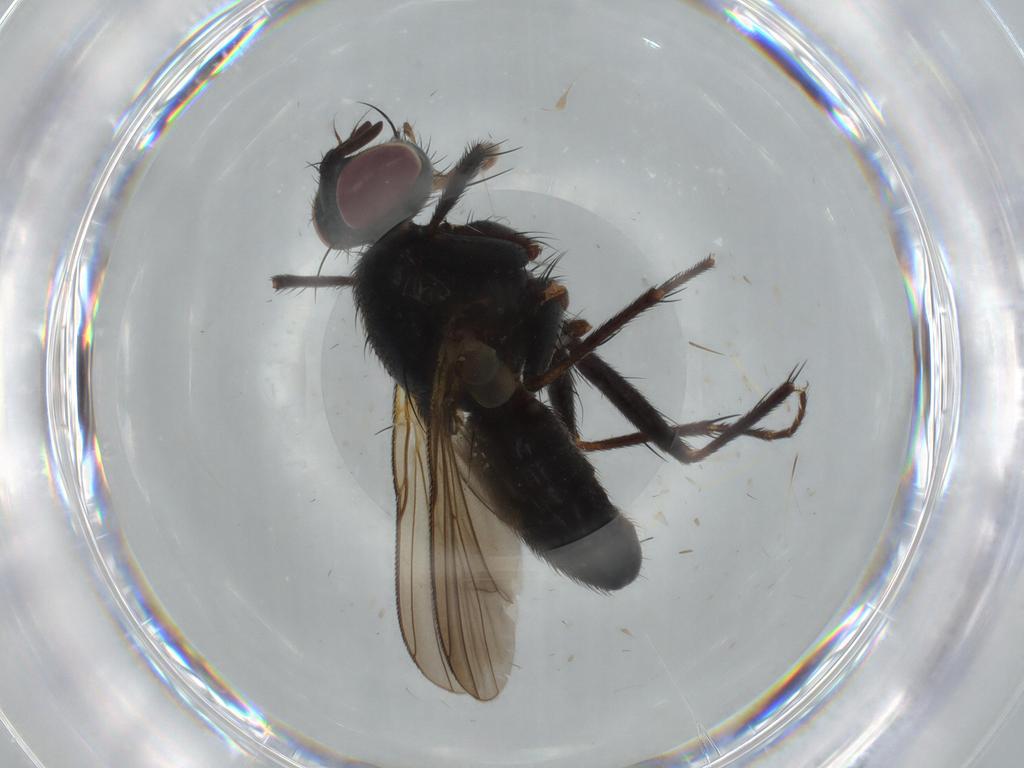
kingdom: Animalia
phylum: Arthropoda
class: Insecta
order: Diptera
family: Muscidae
